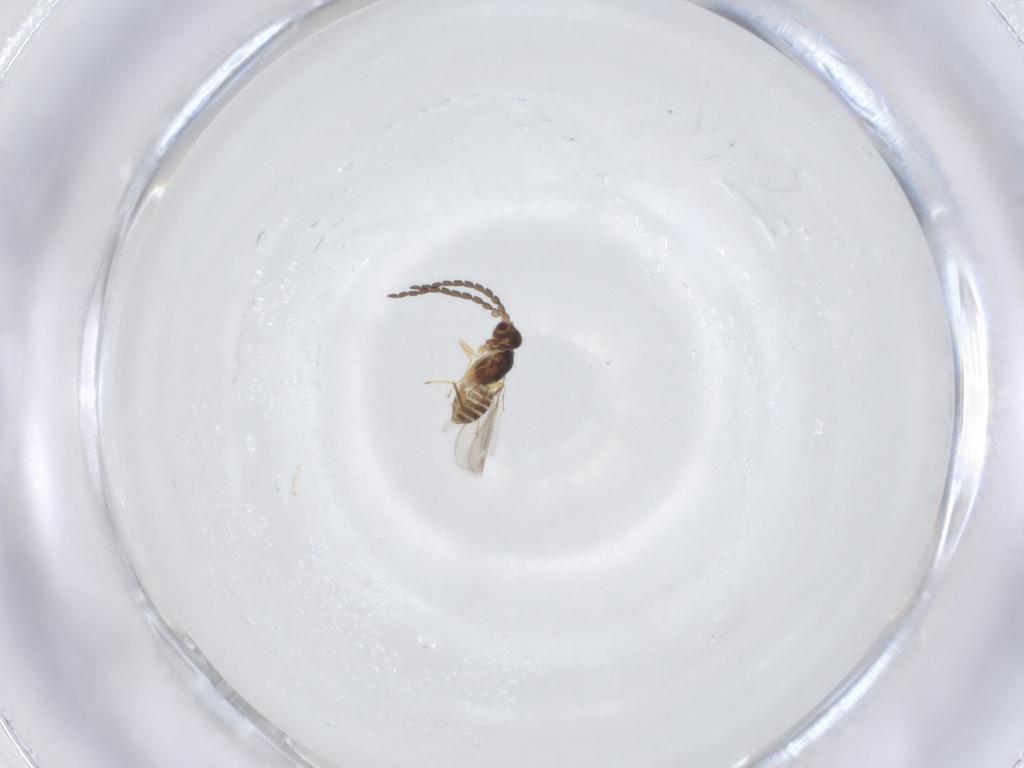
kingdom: Animalia
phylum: Arthropoda
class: Insecta
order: Hymenoptera
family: Mymaridae
